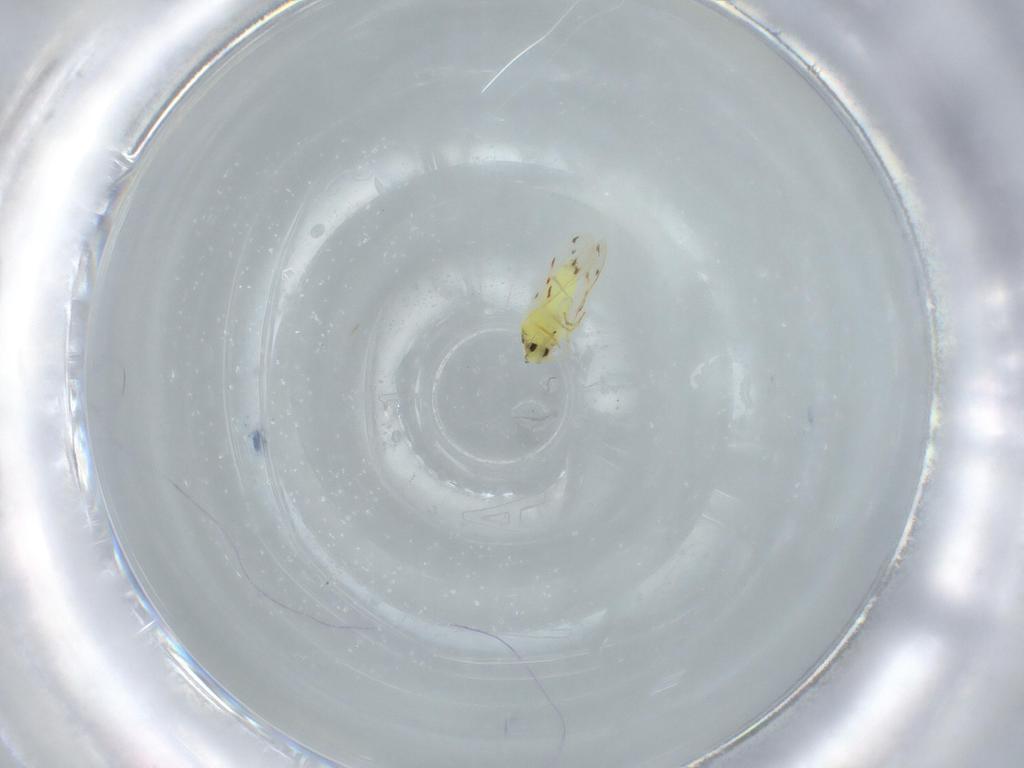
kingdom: Animalia
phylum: Arthropoda
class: Insecta
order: Hemiptera
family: Aleyrodidae
